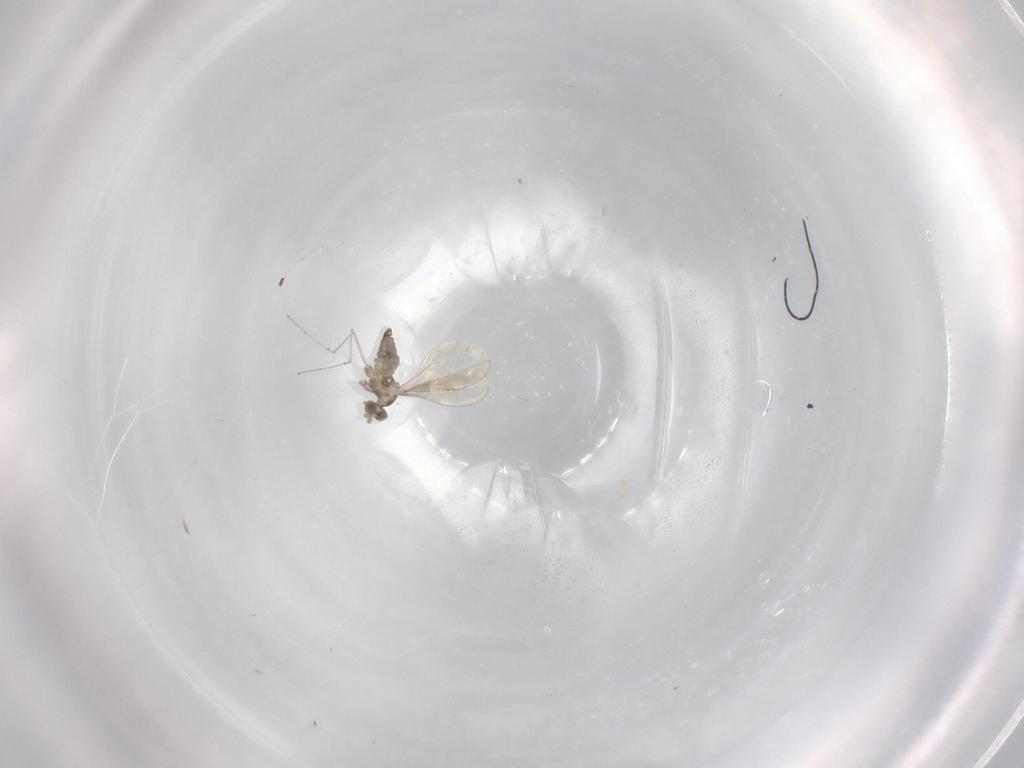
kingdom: Animalia
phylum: Arthropoda
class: Insecta
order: Diptera
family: Cecidomyiidae
